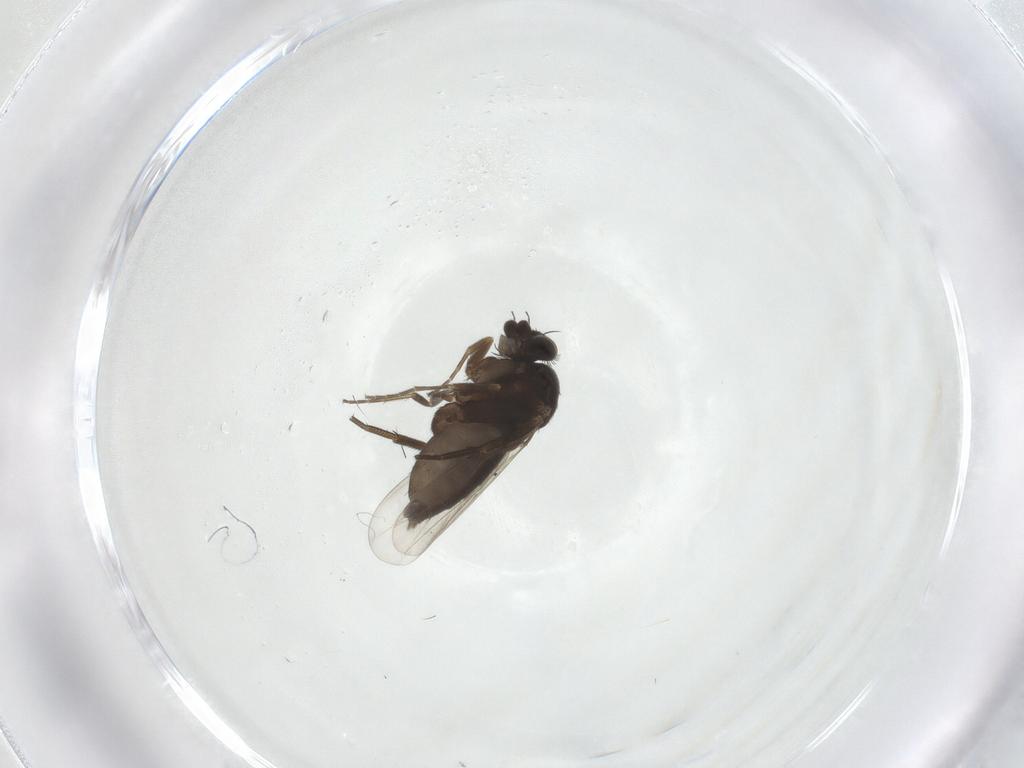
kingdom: Animalia
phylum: Arthropoda
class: Insecta
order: Diptera
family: Phoridae
